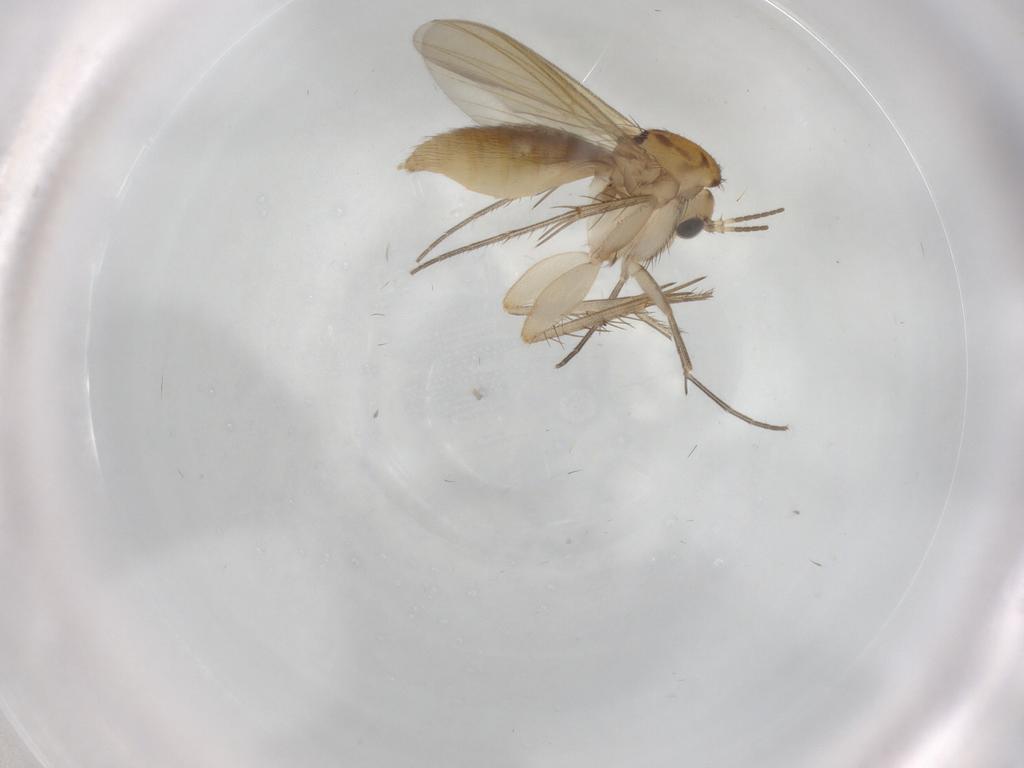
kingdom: Animalia
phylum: Arthropoda
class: Insecta
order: Diptera
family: Mycetophilidae
